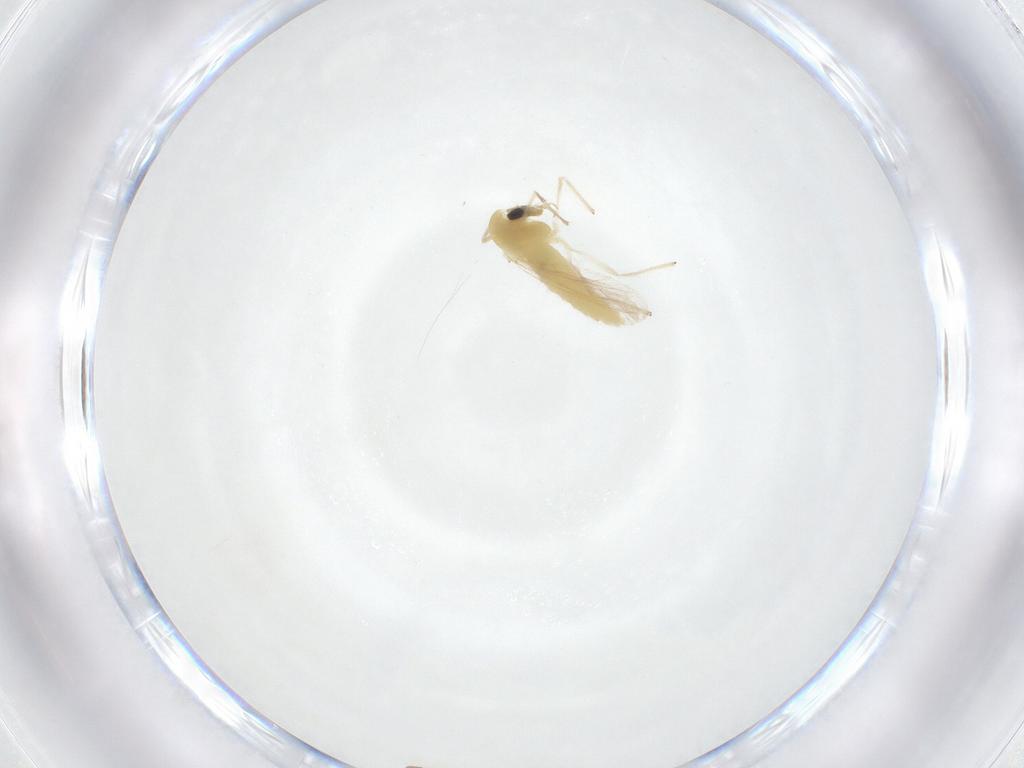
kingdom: Animalia
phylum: Arthropoda
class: Insecta
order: Diptera
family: Chironomidae
